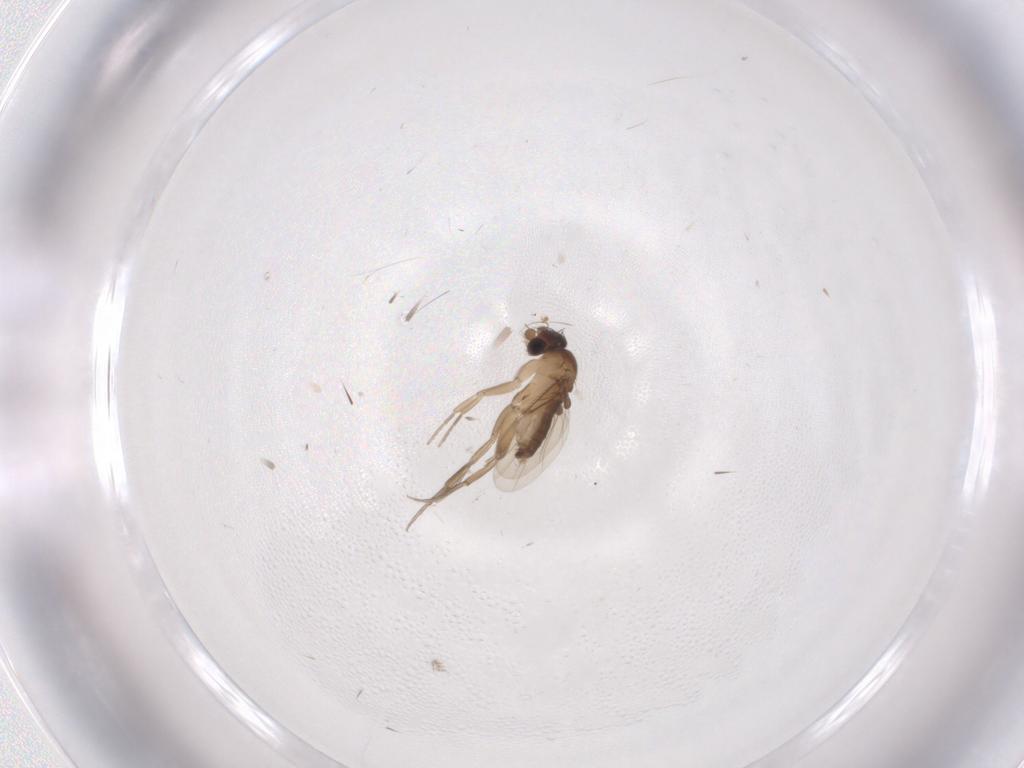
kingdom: Animalia
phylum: Arthropoda
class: Insecta
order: Diptera
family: Phoridae
